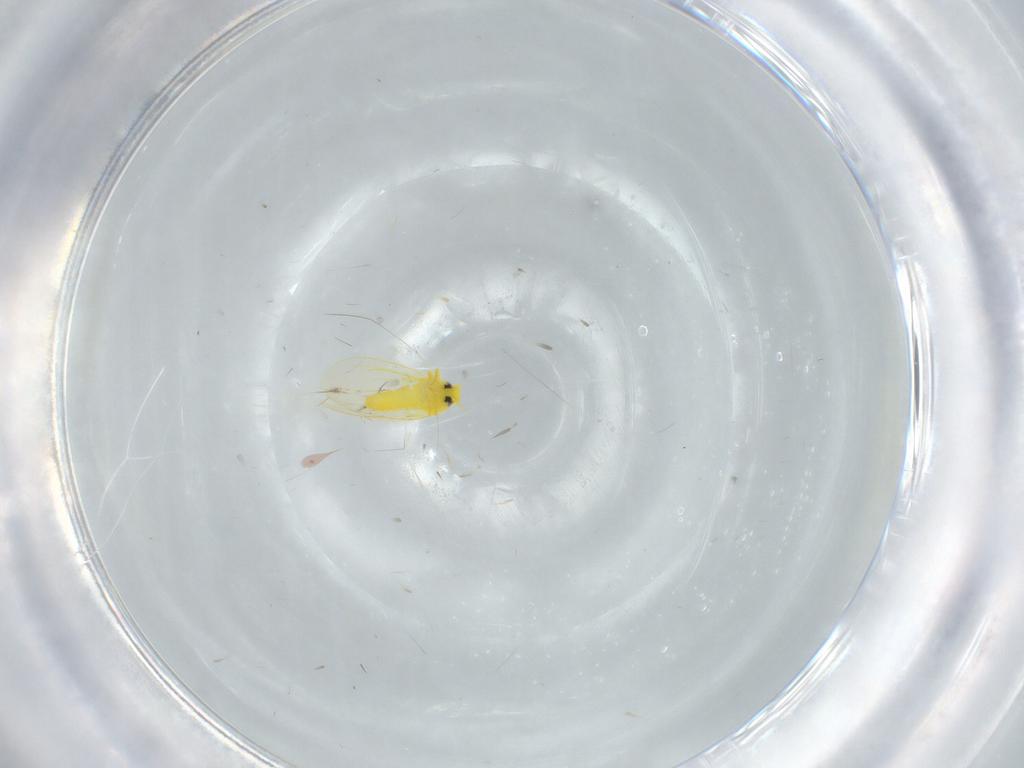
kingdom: Animalia
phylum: Arthropoda
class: Insecta
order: Hemiptera
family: Aleyrodidae
